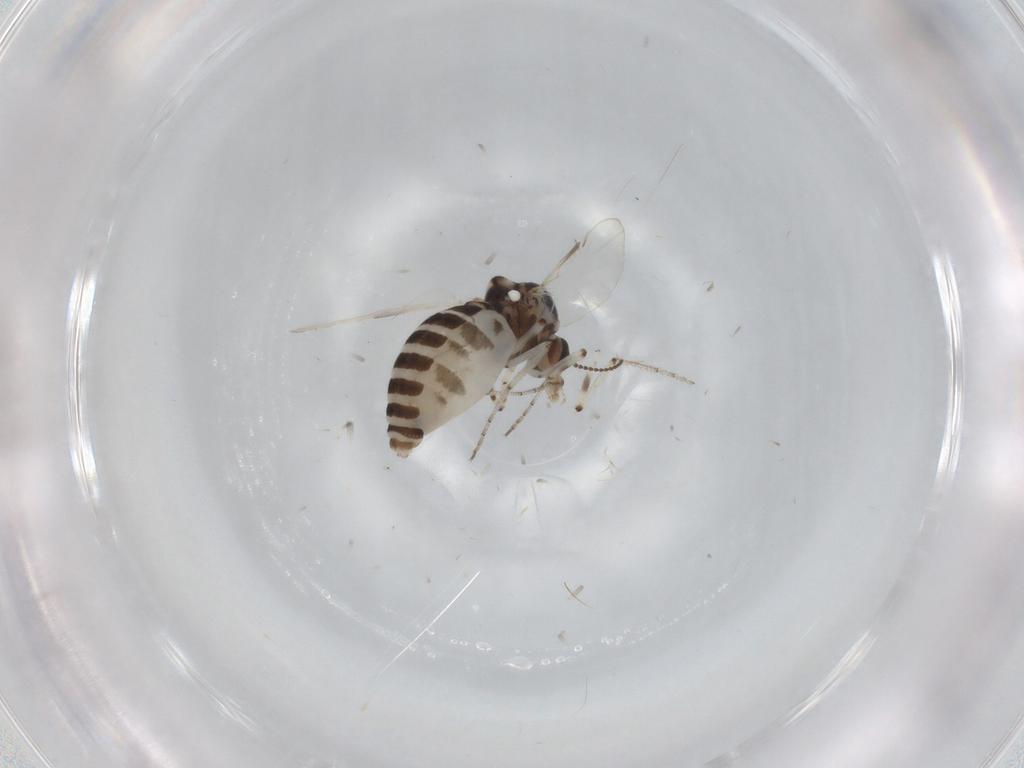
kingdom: Animalia
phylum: Arthropoda
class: Insecta
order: Diptera
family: Ceratopogonidae
